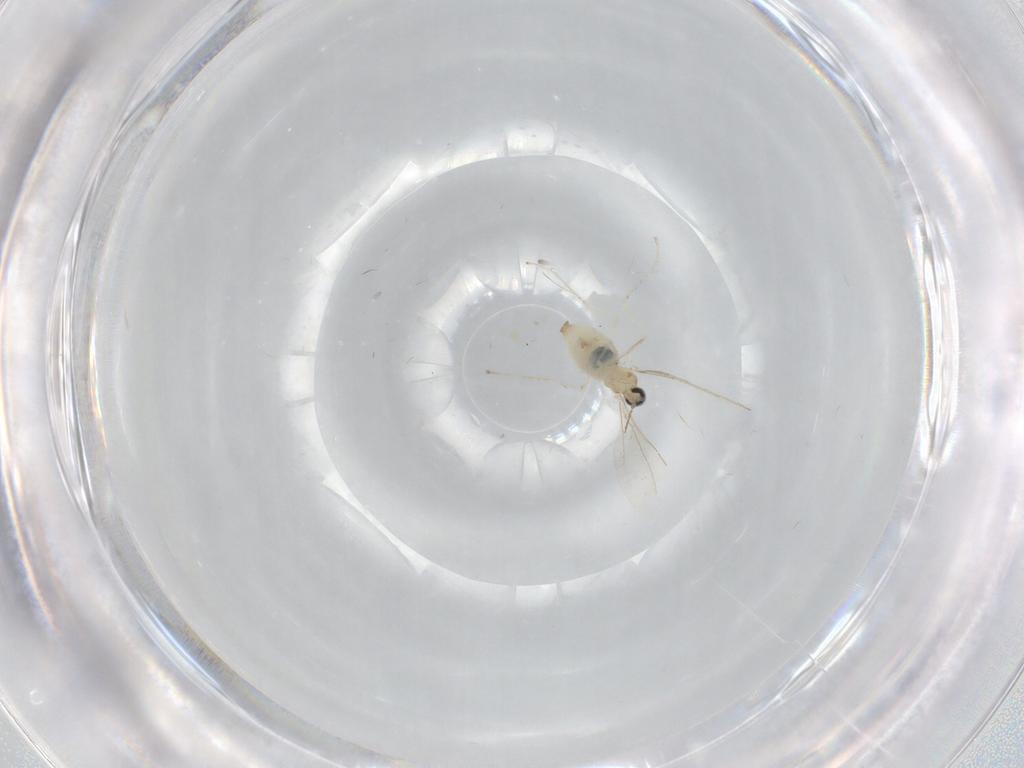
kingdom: Animalia
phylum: Arthropoda
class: Insecta
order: Diptera
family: Cecidomyiidae
